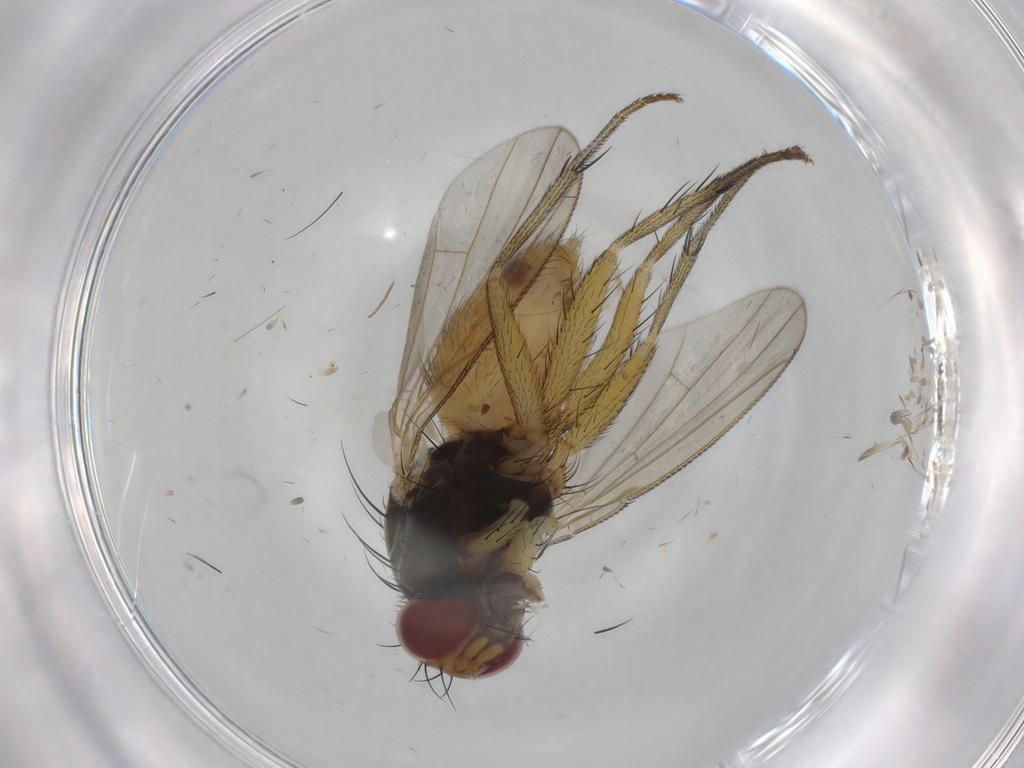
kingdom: Animalia
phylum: Arthropoda
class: Insecta
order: Diptera
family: Muscidae
